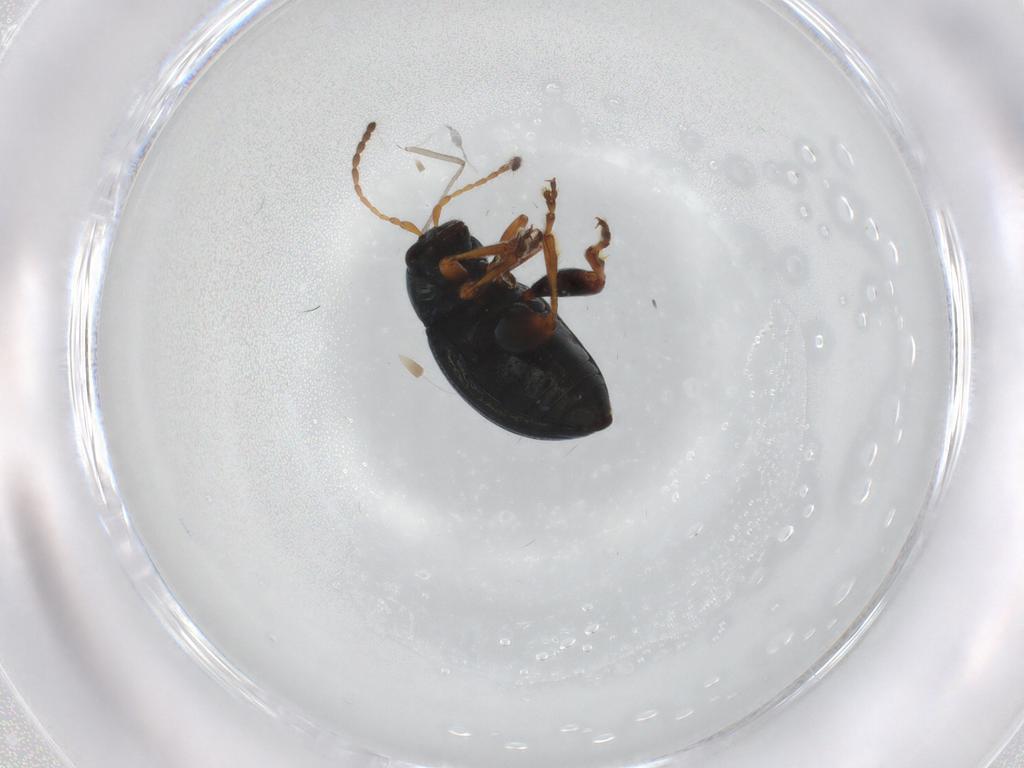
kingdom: Animalia
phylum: Arthropoda
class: Insecta
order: Coleoptera
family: Chrysomelidae
